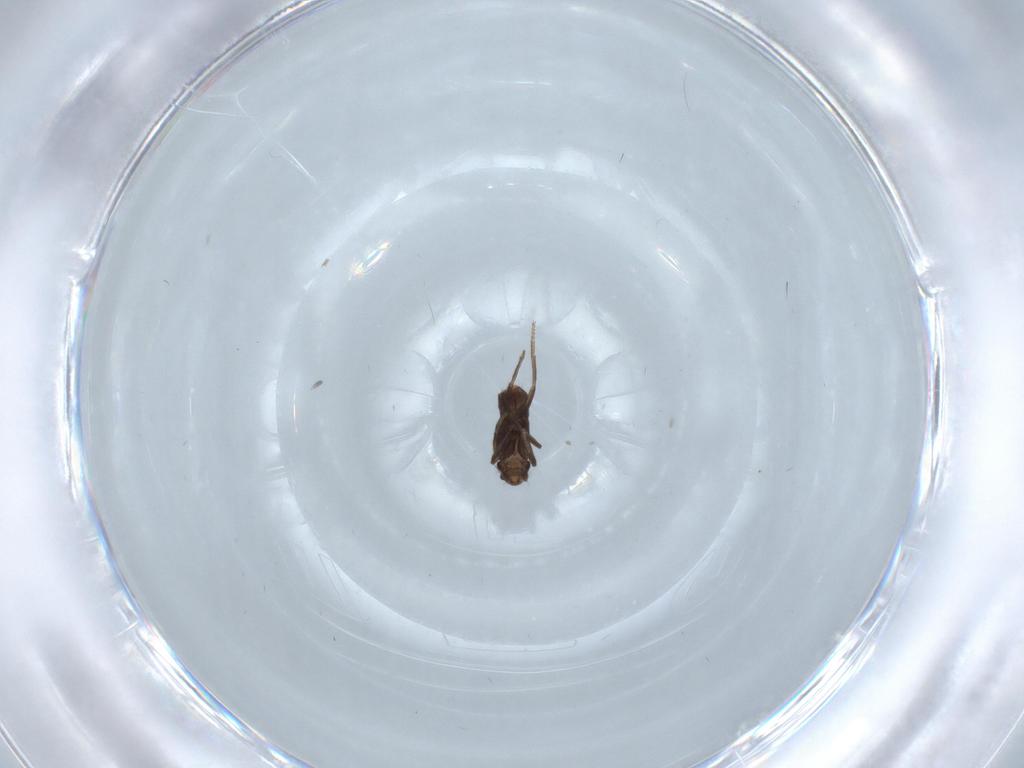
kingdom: Animalia
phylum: Arthropoda
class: Insecta
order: Diptera
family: Phoridae
